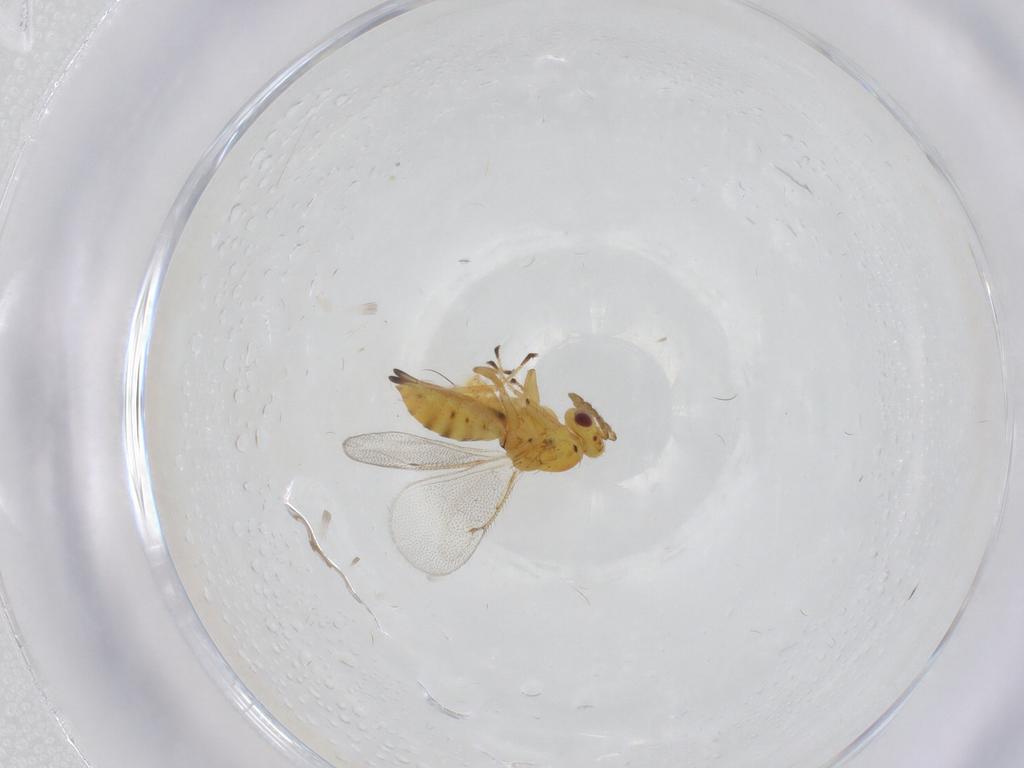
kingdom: Animalia
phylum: Arthropoda
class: Insecta
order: Hymenoptera
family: Eulophidae
